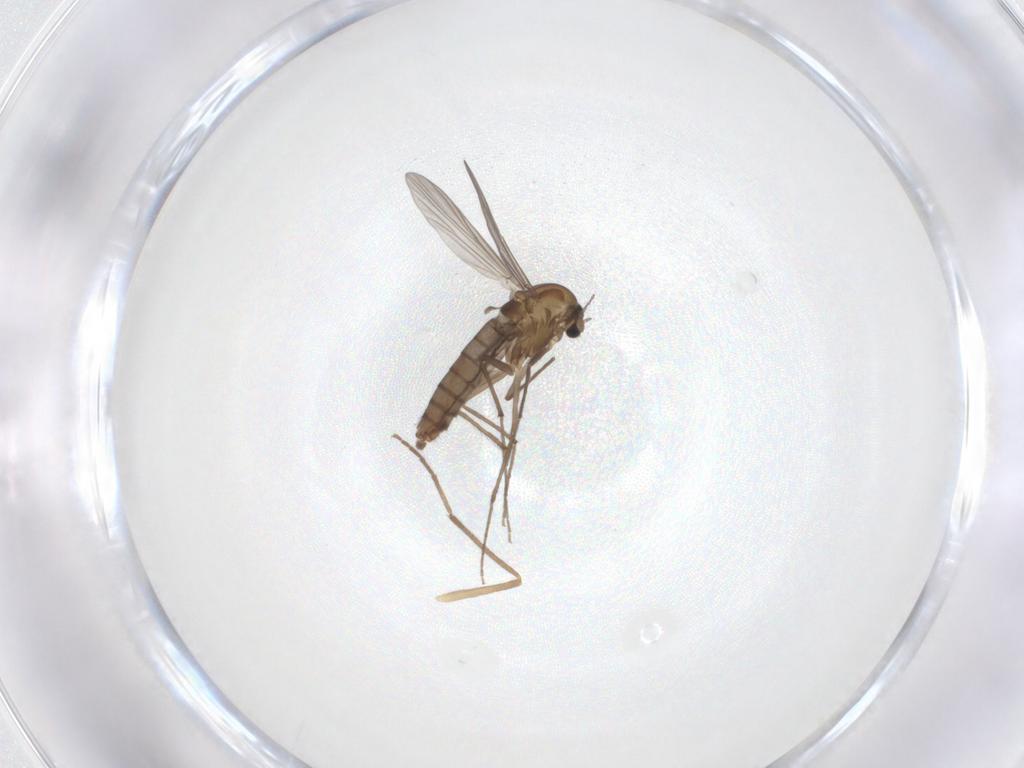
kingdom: Animalia
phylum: Arthropoda
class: Insecta
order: Diptera
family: Chironomidae
